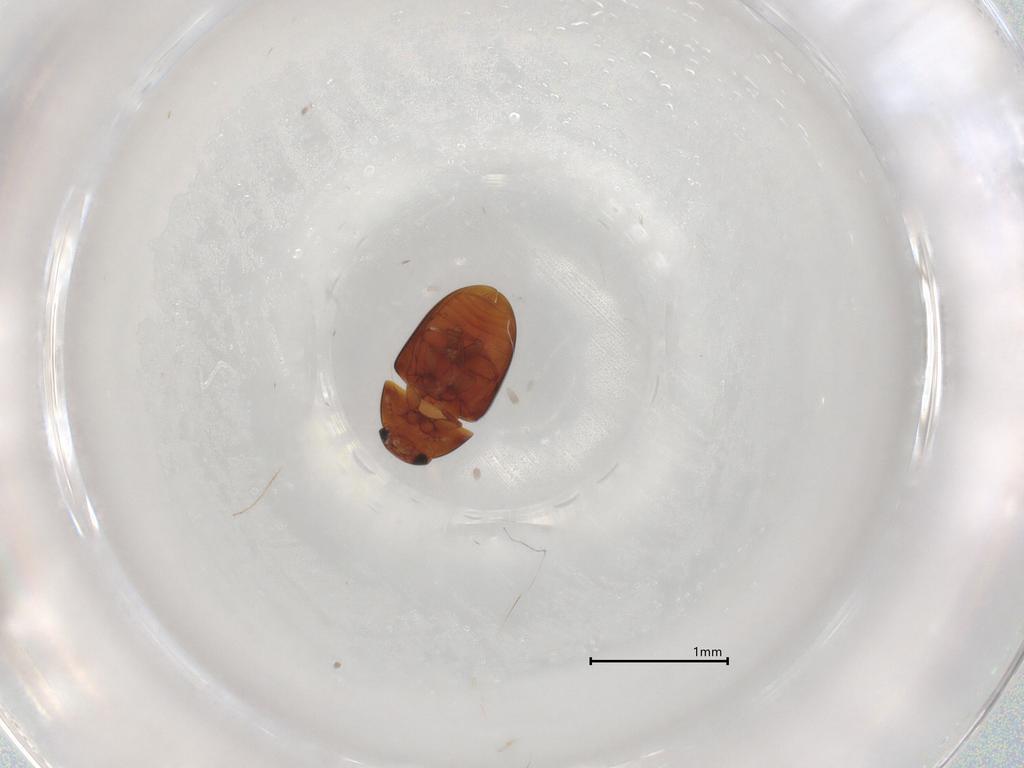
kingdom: Animalia
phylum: Arthropoda
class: Insecta
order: Coleoptera
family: Phalacridae
